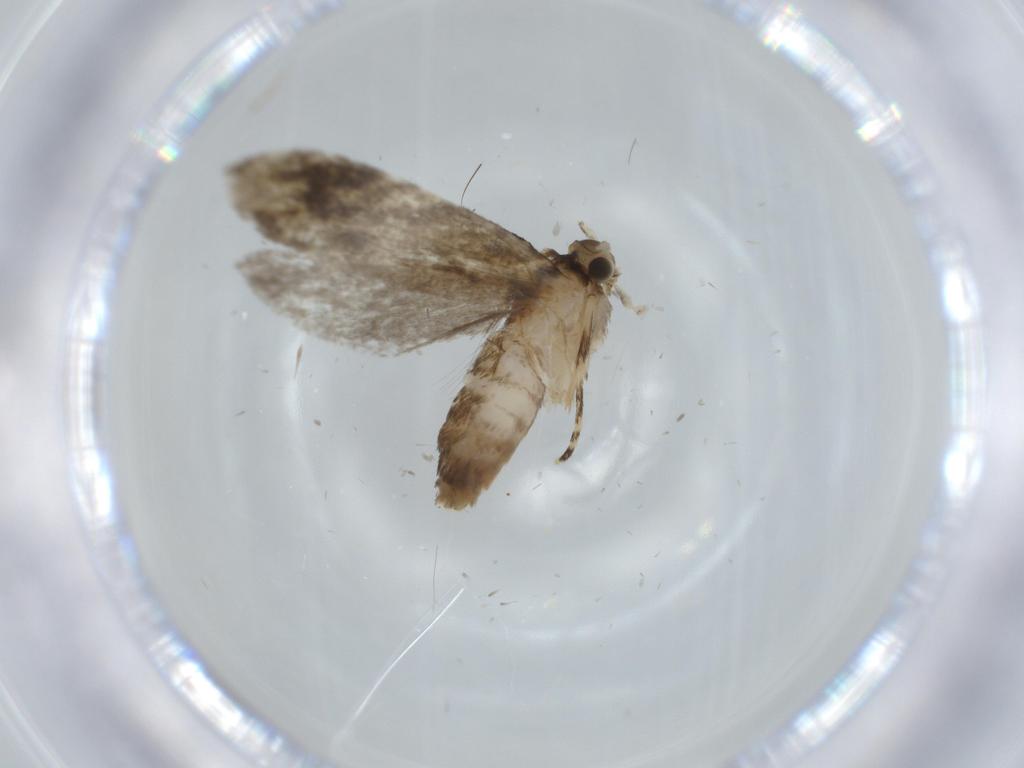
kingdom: Animalia
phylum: Arthropoda
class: Insecta
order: Lepidoptera
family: Tineidae
